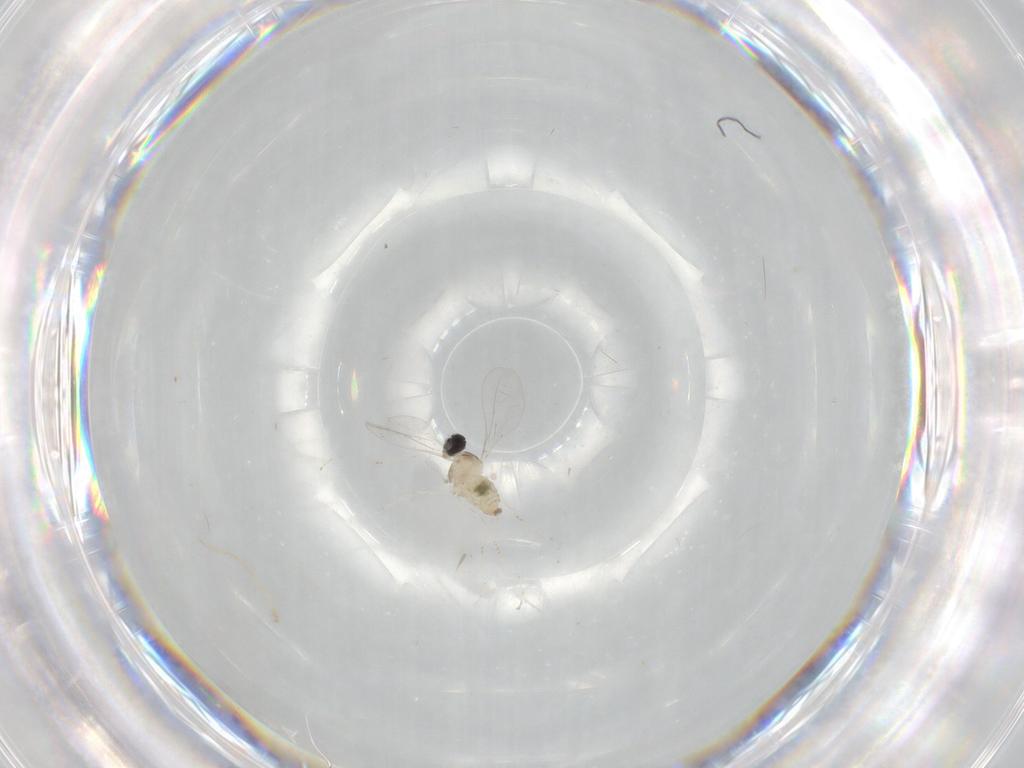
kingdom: Animalia
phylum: Arthropoda
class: Insecta
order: Diptera
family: Cecidomyiidae
